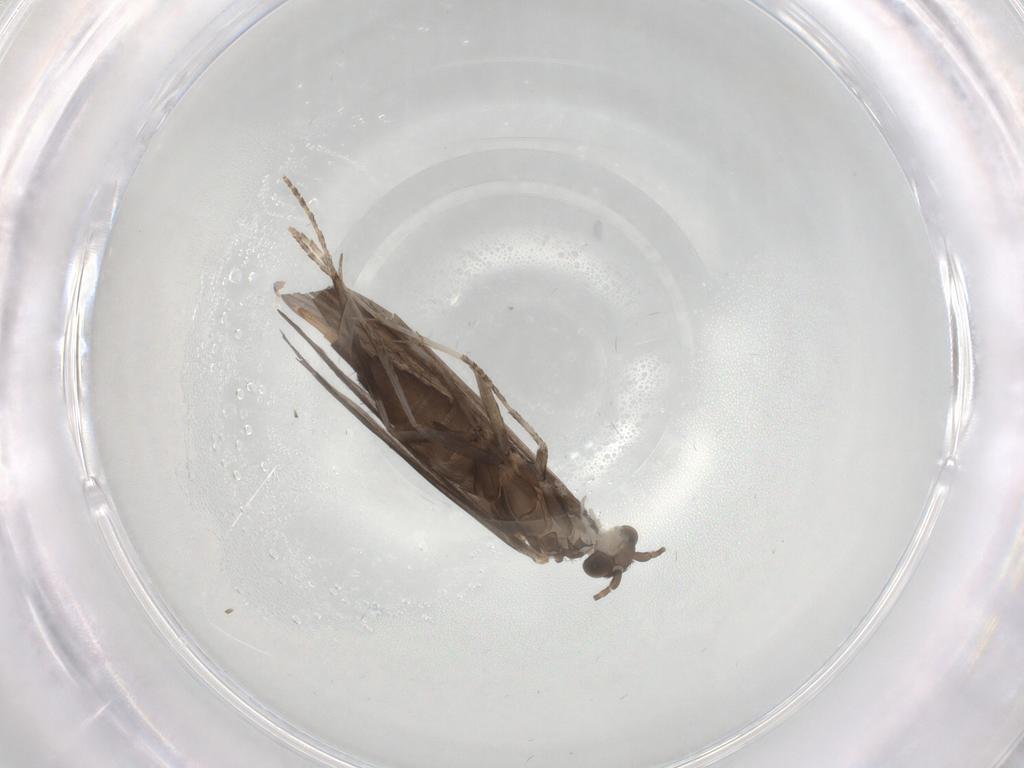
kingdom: Animalia
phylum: Arthropoda
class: Insecta
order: Trichoptera
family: Xiphocentronidae
